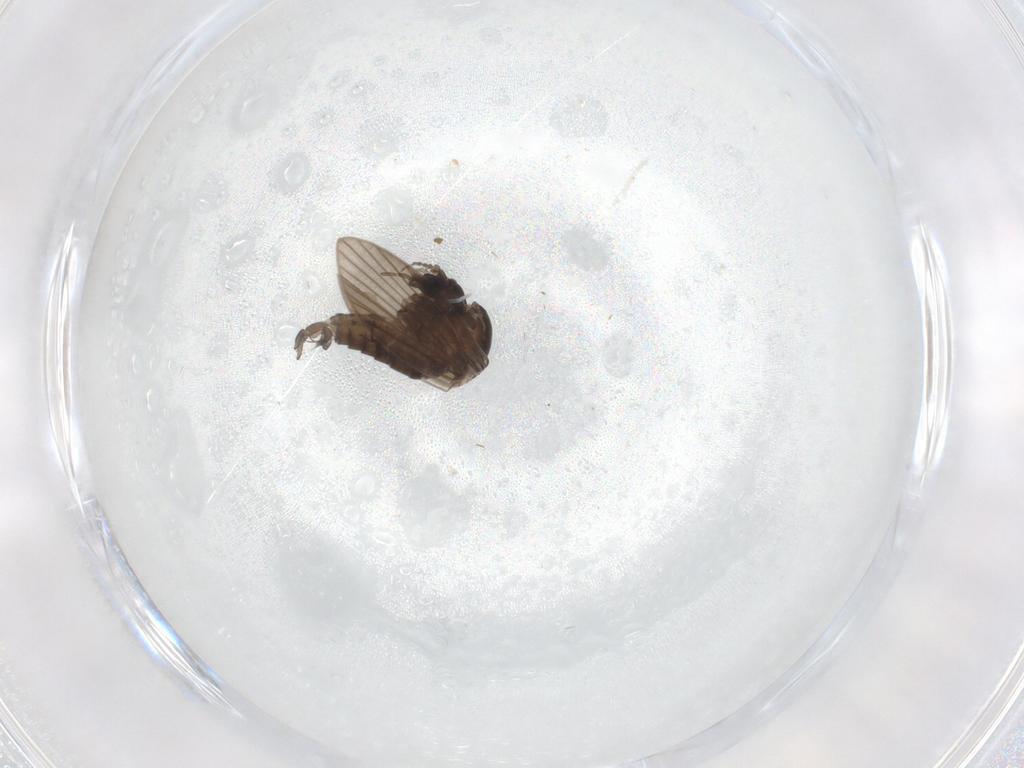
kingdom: Animalia
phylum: Arthropoda
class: Insecta
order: Diptera
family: Psychodidae
